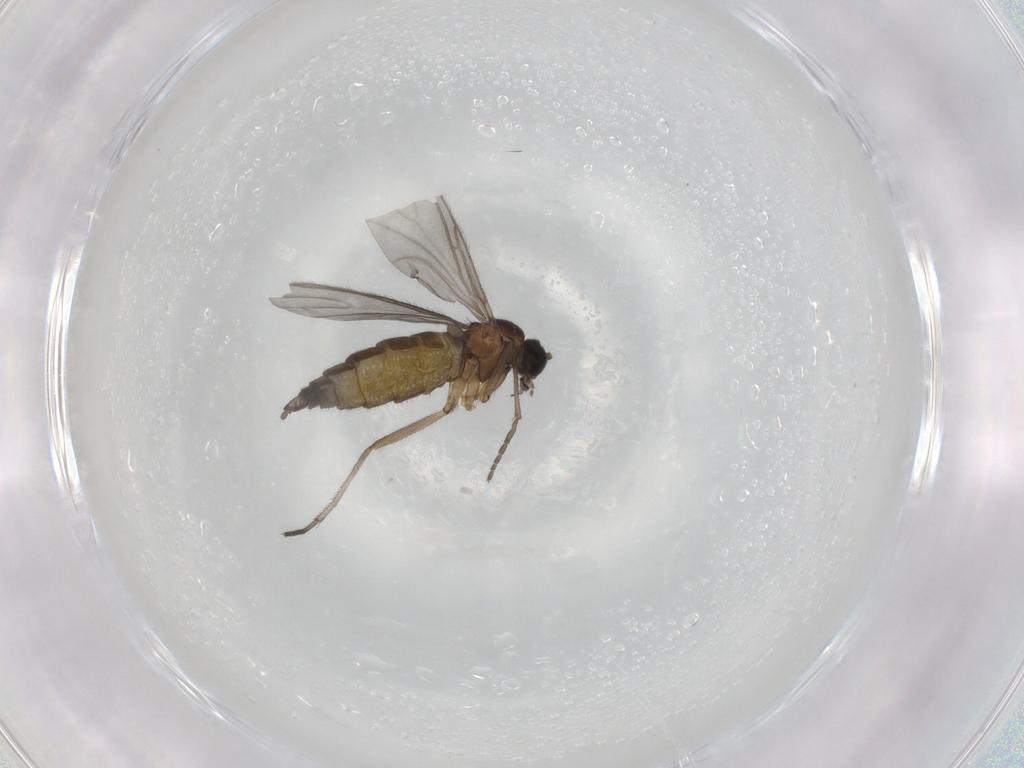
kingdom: Animalia
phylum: Arthropoda
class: Insecta
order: Diptera
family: Sciaridae
